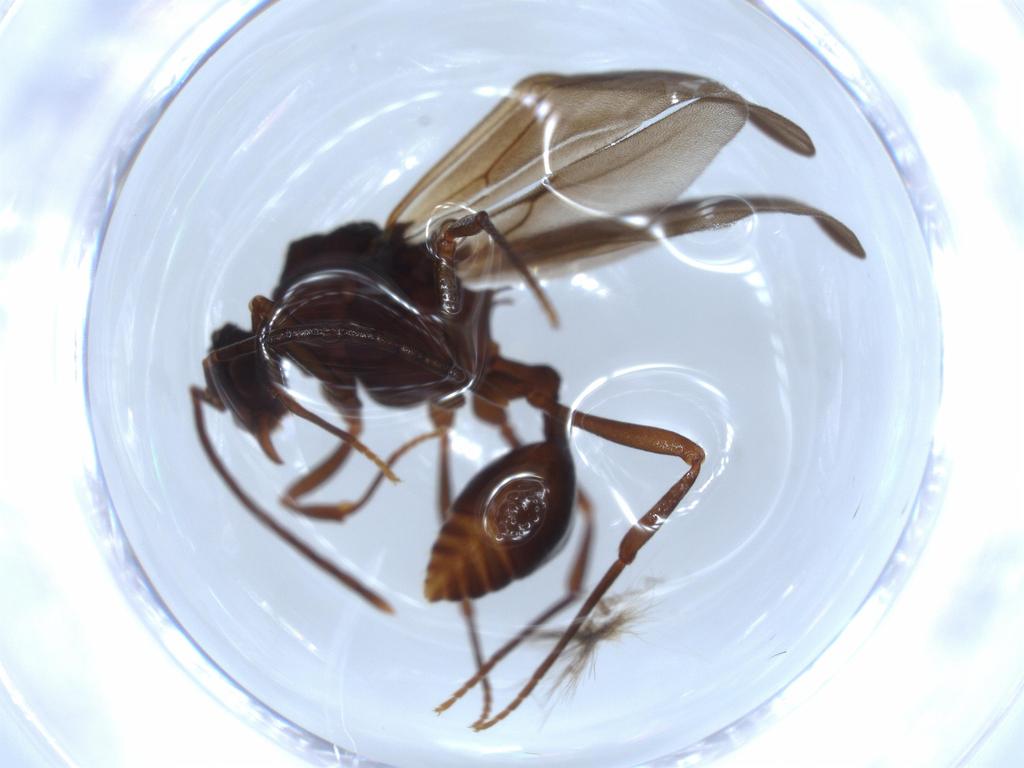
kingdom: Animalia
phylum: Arthropoda
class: Insecta
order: Hymenoptera
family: Formicidae
